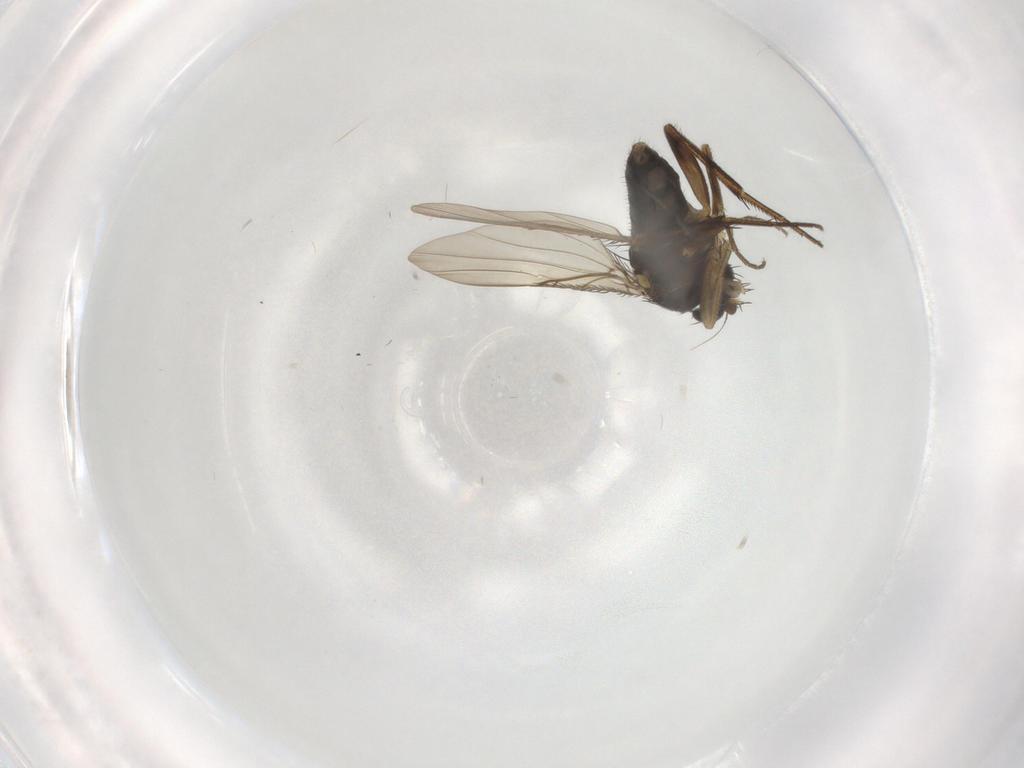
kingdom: Animalia
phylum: Arthropoda
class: Insecta
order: Diptera
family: Phoridae
